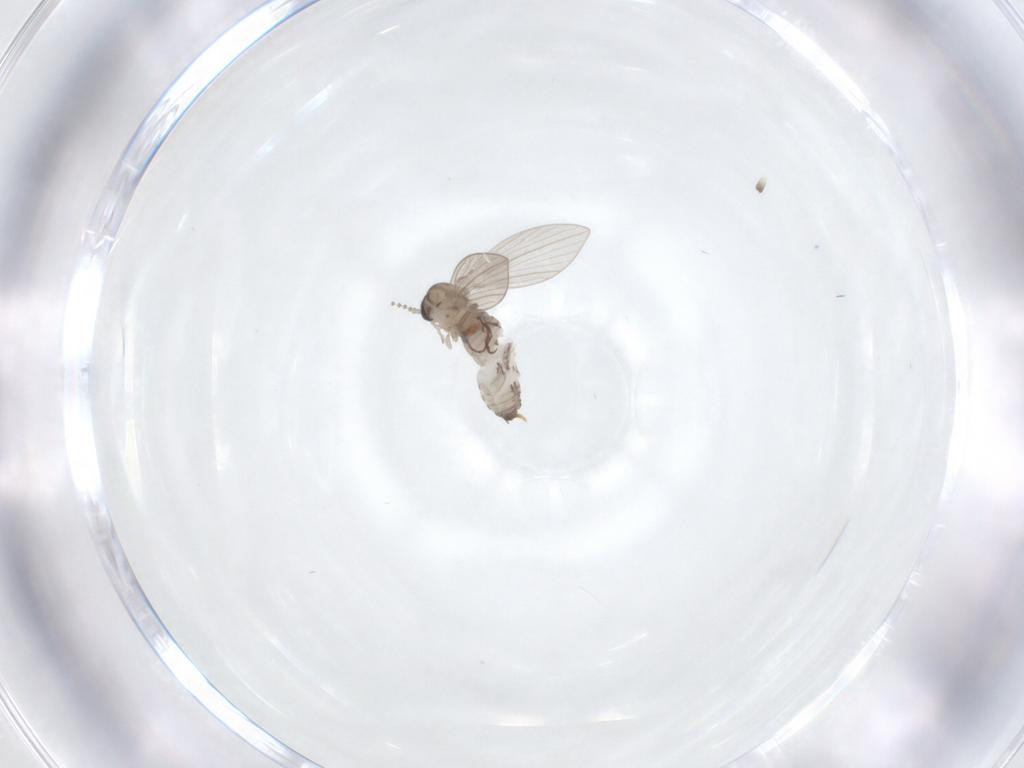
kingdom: Animalia
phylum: Arthropoda
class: Insecta
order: Diptera
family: Psychodidae
